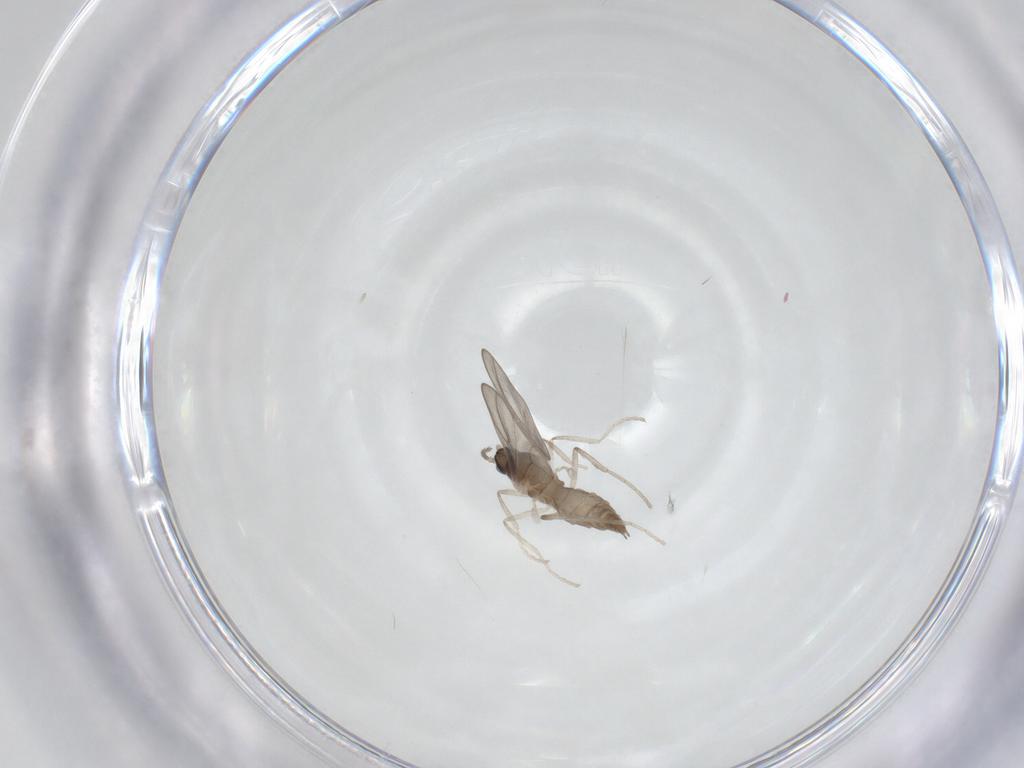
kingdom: Animalia
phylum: Arthropoda
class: Insecta
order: Diptera
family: Cecidomyiidae
